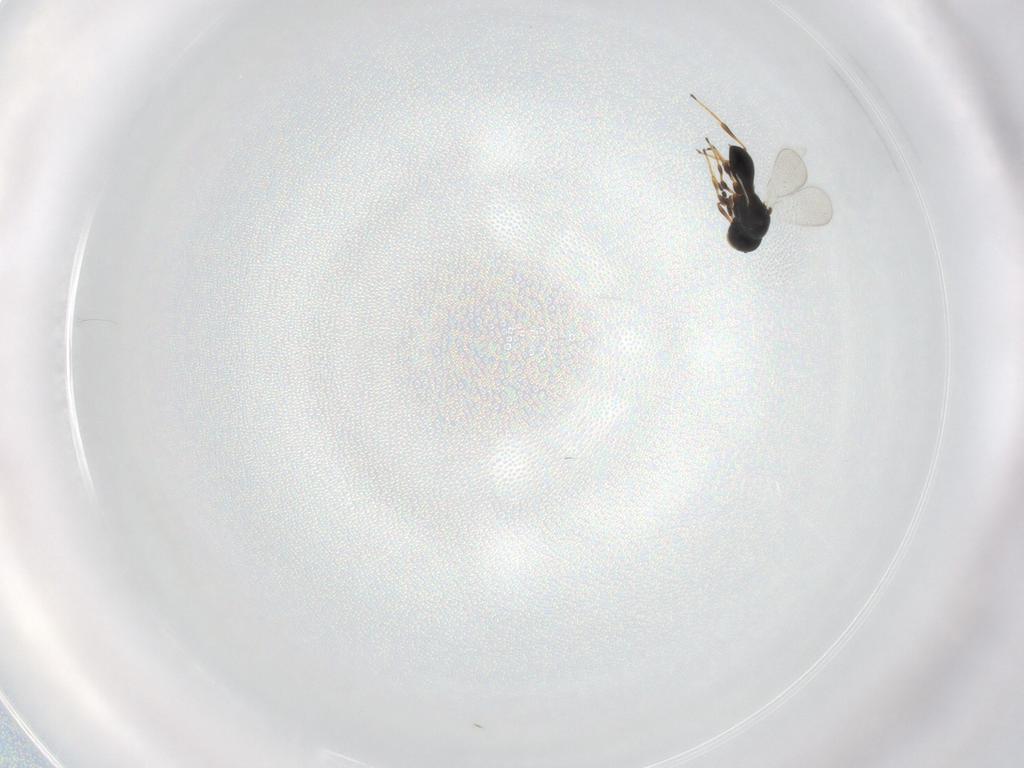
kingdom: Animalia
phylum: Arthropoda
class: Insecta
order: Hymenoptera
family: Platygastridae
